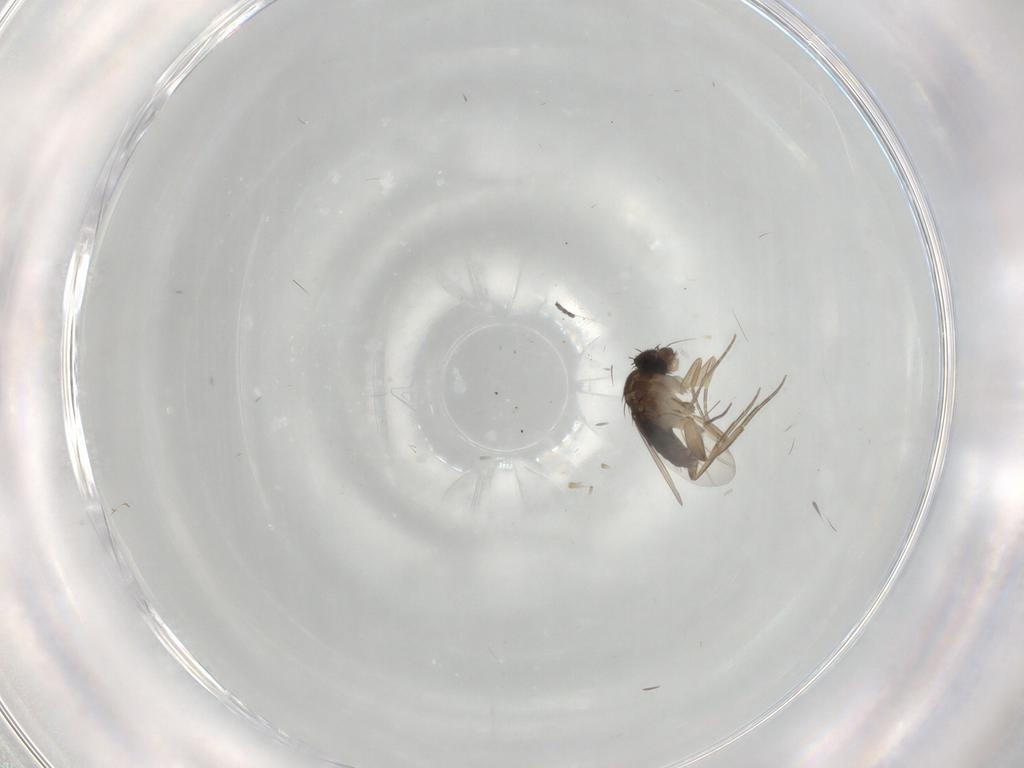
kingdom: Animalia
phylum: Arthropoda
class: Insecta
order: Diptera
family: Phoridae
